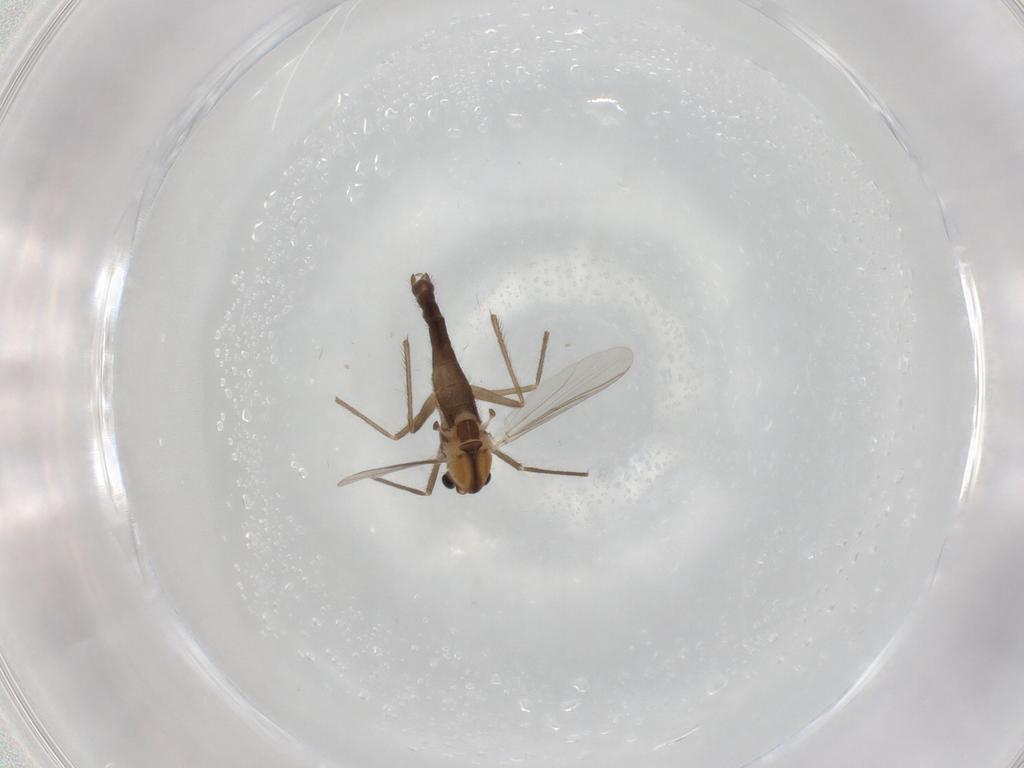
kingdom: Animalia
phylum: Arthropoda
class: Insecta
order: Diptera
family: Chironomidae
